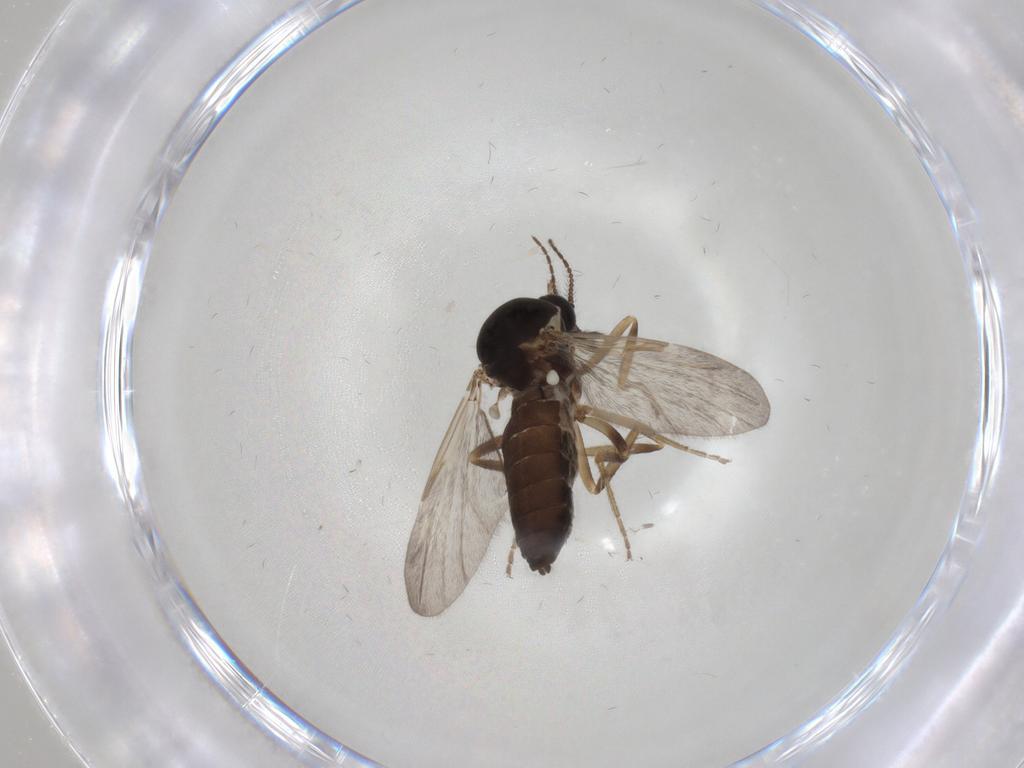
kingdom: Animalia
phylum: Arthropoda
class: Insecta
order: Diptera
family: Ceratopogonidae
